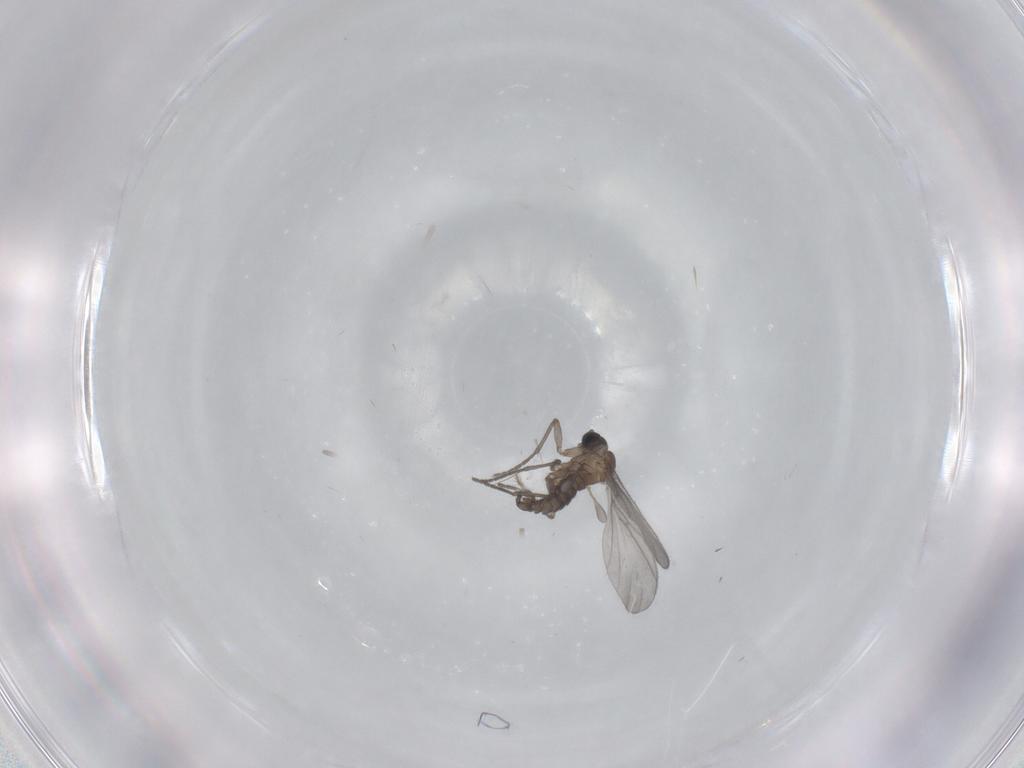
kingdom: Animalia
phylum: Arthropoda
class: Insecta
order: Diptera
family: Sciaridae
